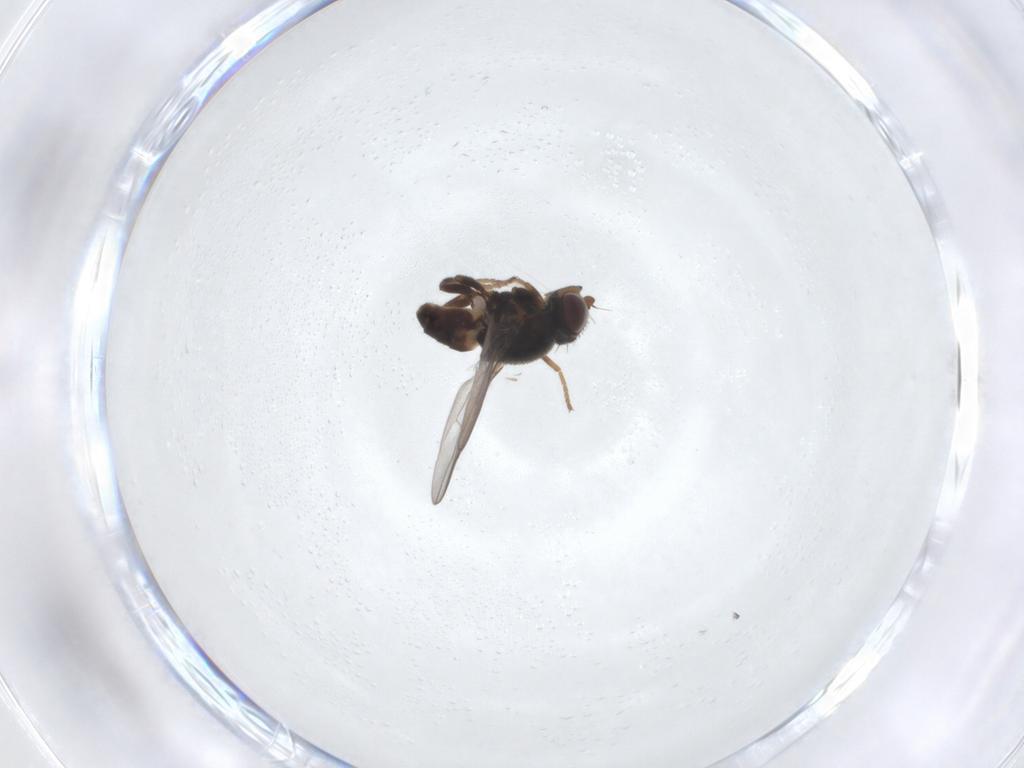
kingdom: Animalia
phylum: Arthropoda
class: Insecta
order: Diptera
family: Chloropidae
